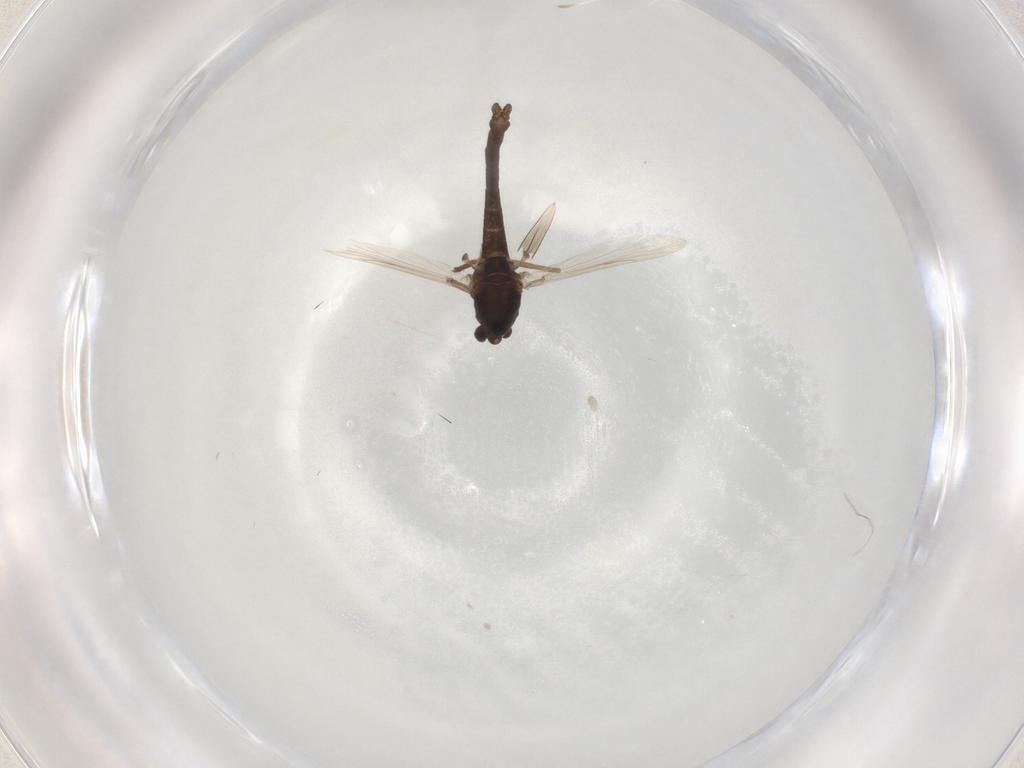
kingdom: Animalia
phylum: Arthropoda
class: Insecta
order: Diptera
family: Chironomidae
